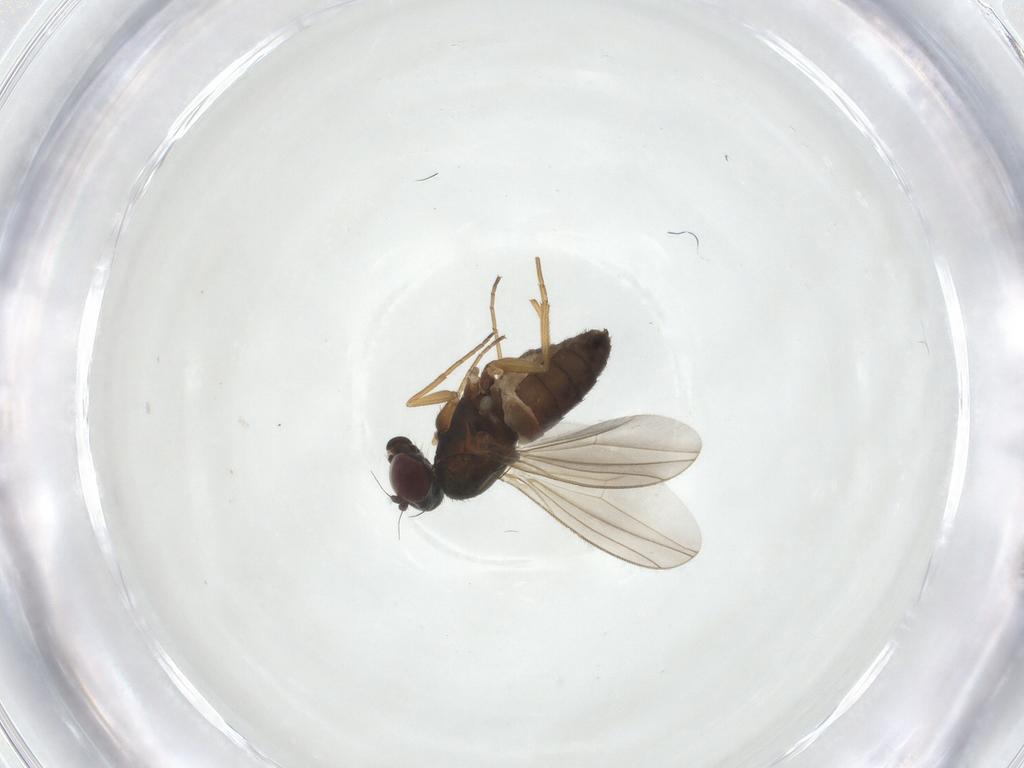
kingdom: Animalia
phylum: Arthropoda
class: Insecta
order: Diptera
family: Dolichopodidae
